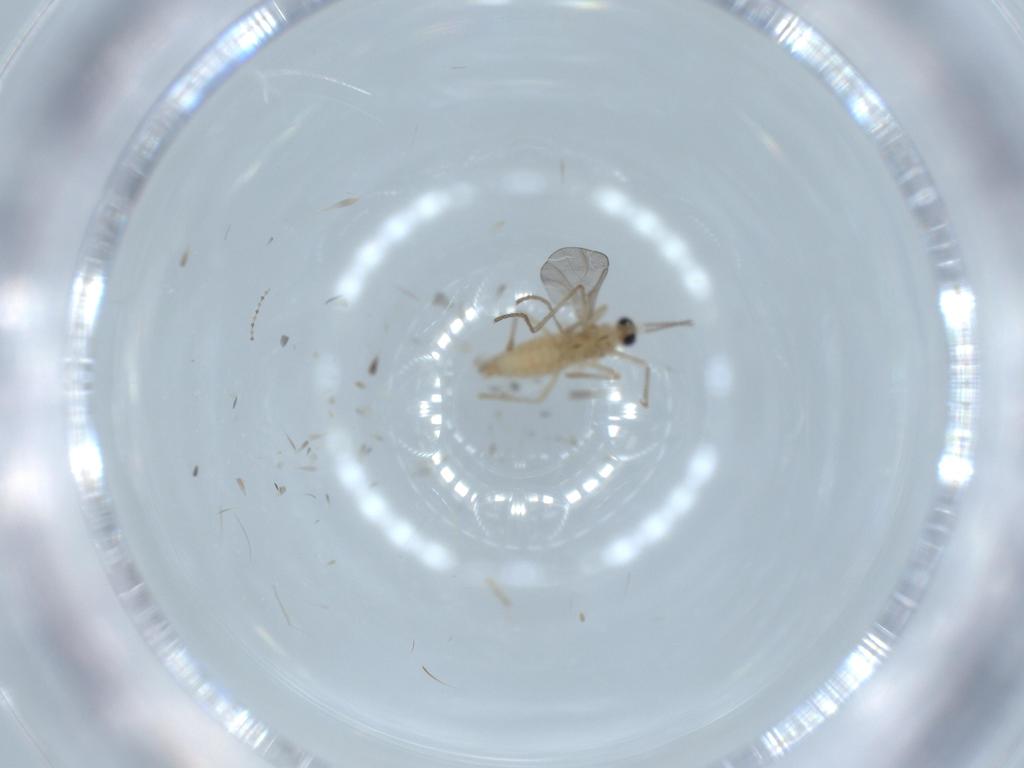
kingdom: Animalia
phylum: Arthropoda
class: Insecta
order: Diptera
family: Cecidomyiidae
